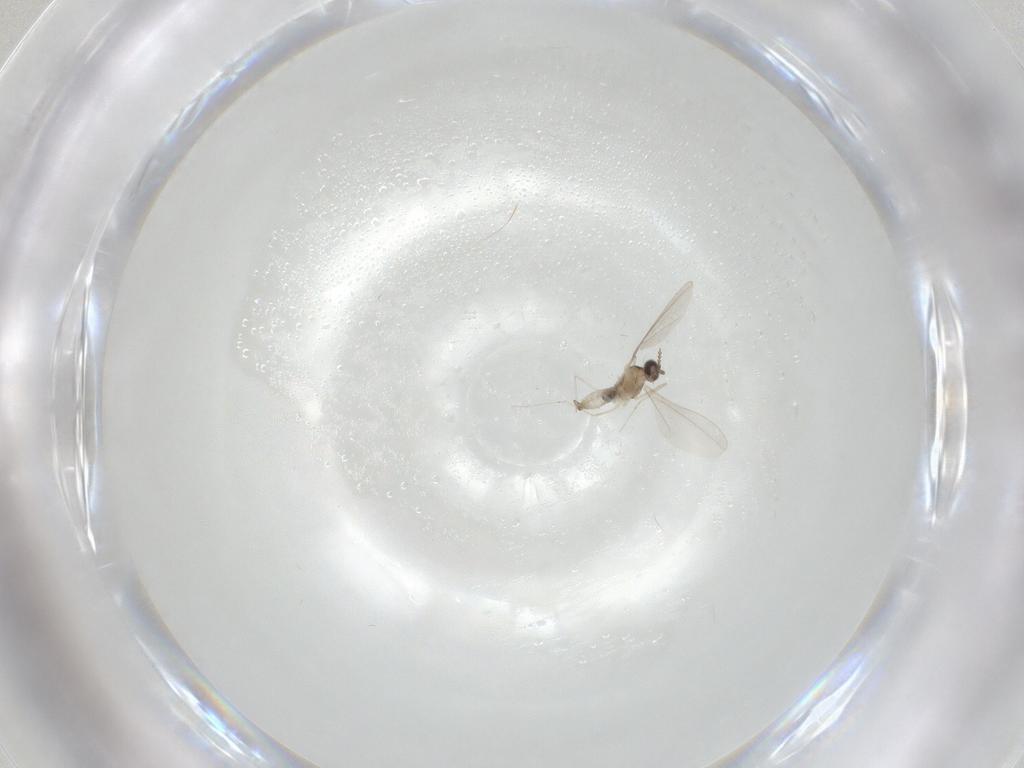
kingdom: Animalia
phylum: Arthropoda
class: Insecta
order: Diptera
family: Cecidomyiidae
